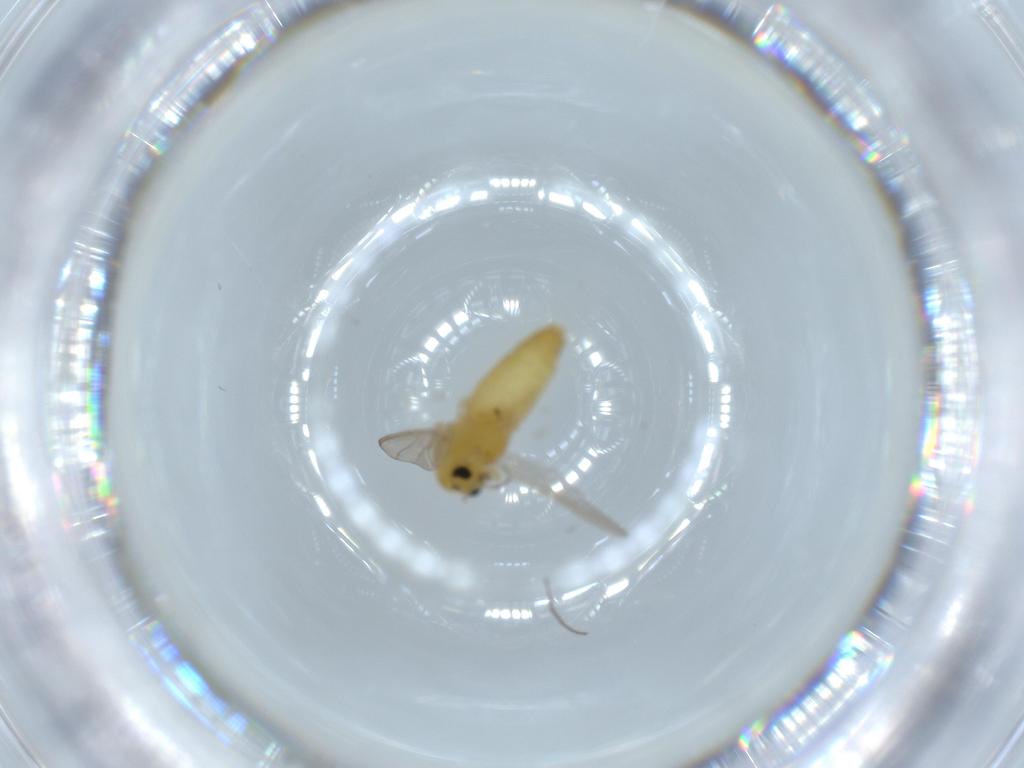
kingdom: Animalia
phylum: Arthropoda
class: Insecta
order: Diptera
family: Chironomidae
